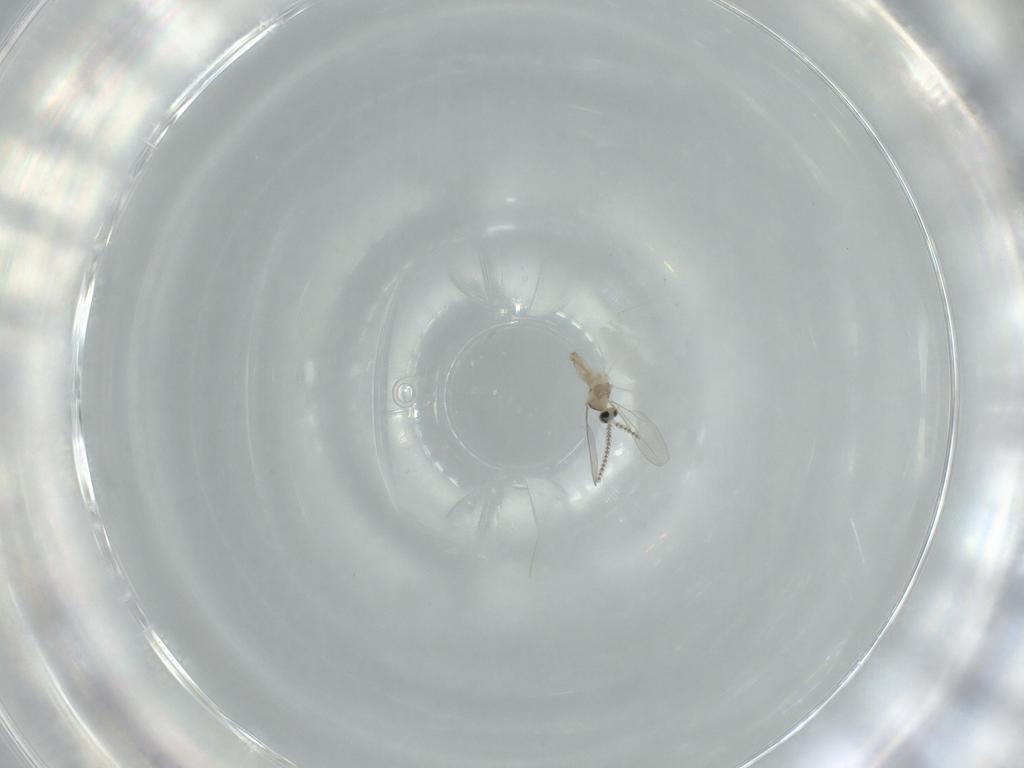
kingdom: Animalia
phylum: Arthropoda
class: Insecta
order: Diptera
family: Cecidomyiidae
